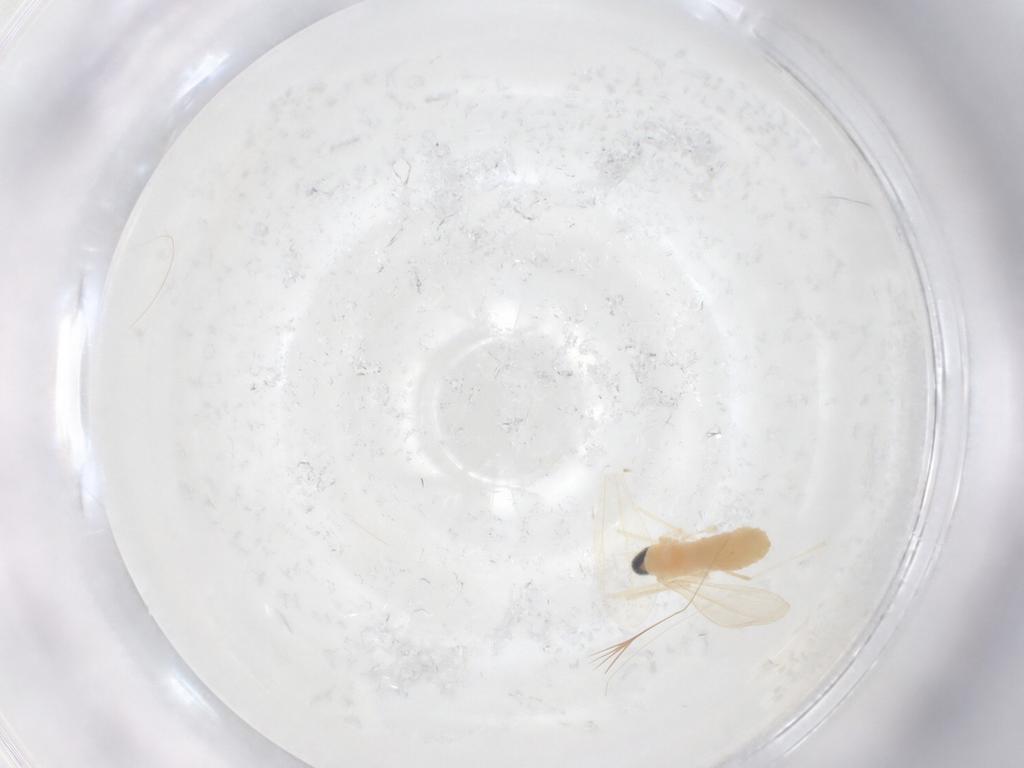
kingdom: Animalia
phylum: Arthropoda
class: Insecta
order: Diptera
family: Cecidomyiidae
